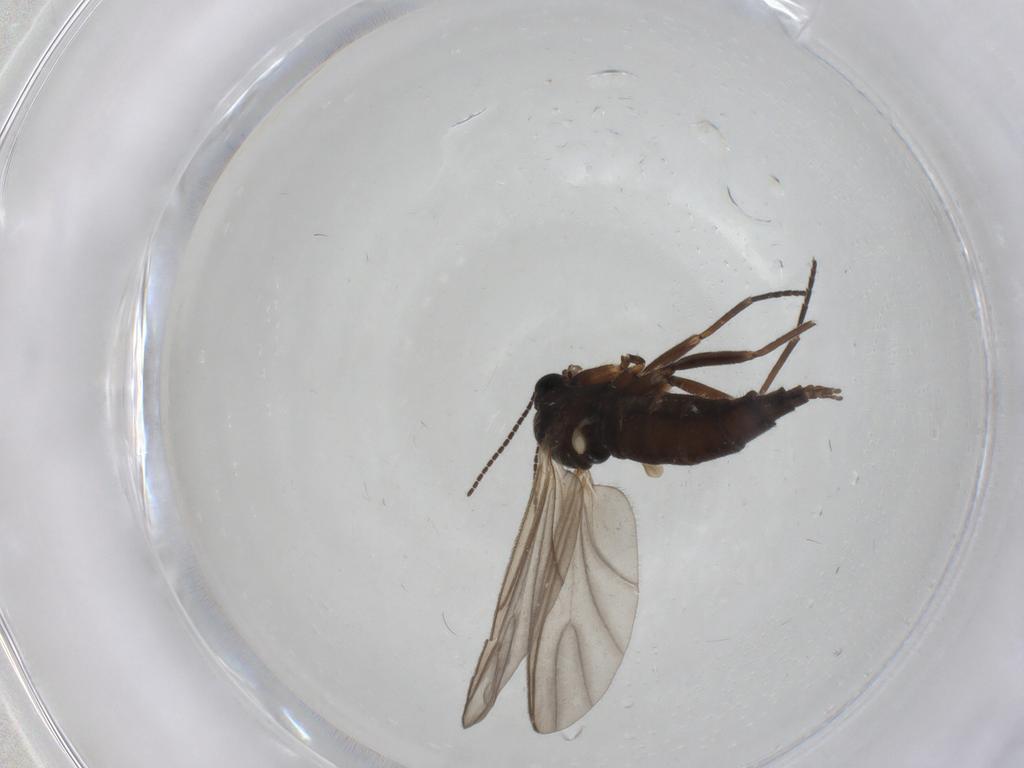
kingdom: Animalia
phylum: Arthropoda
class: Insecta
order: Diptera
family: Sciaridae
